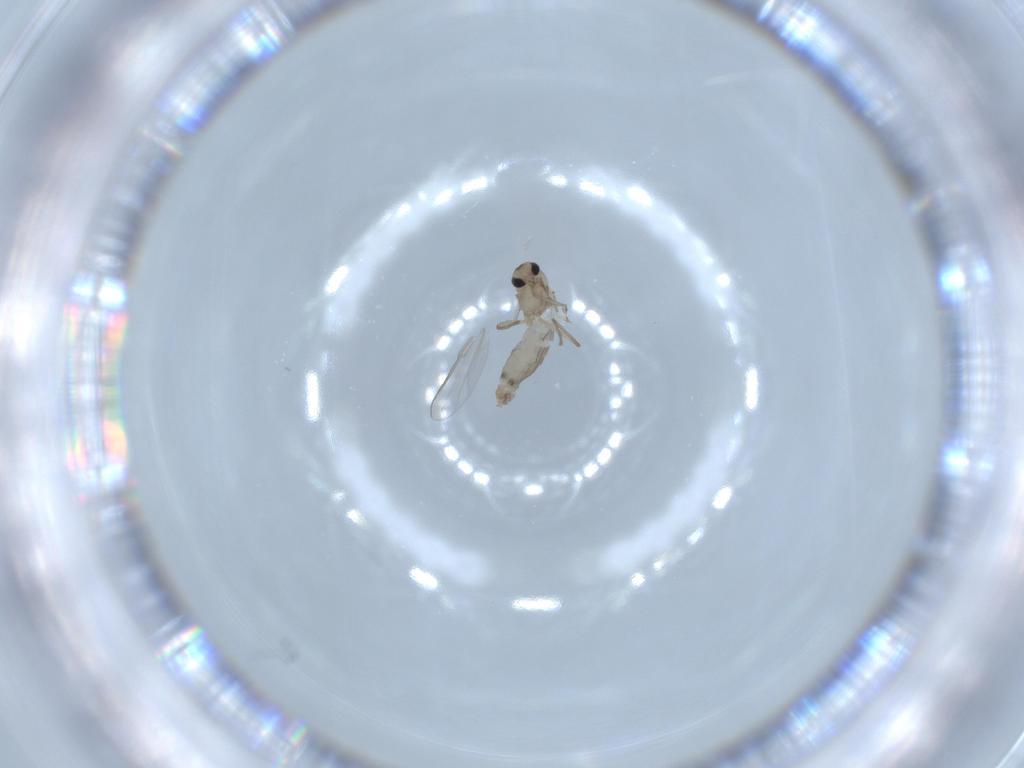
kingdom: Animalia
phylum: Arthropoda
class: Insecta
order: Diptera
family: Chironomidae
